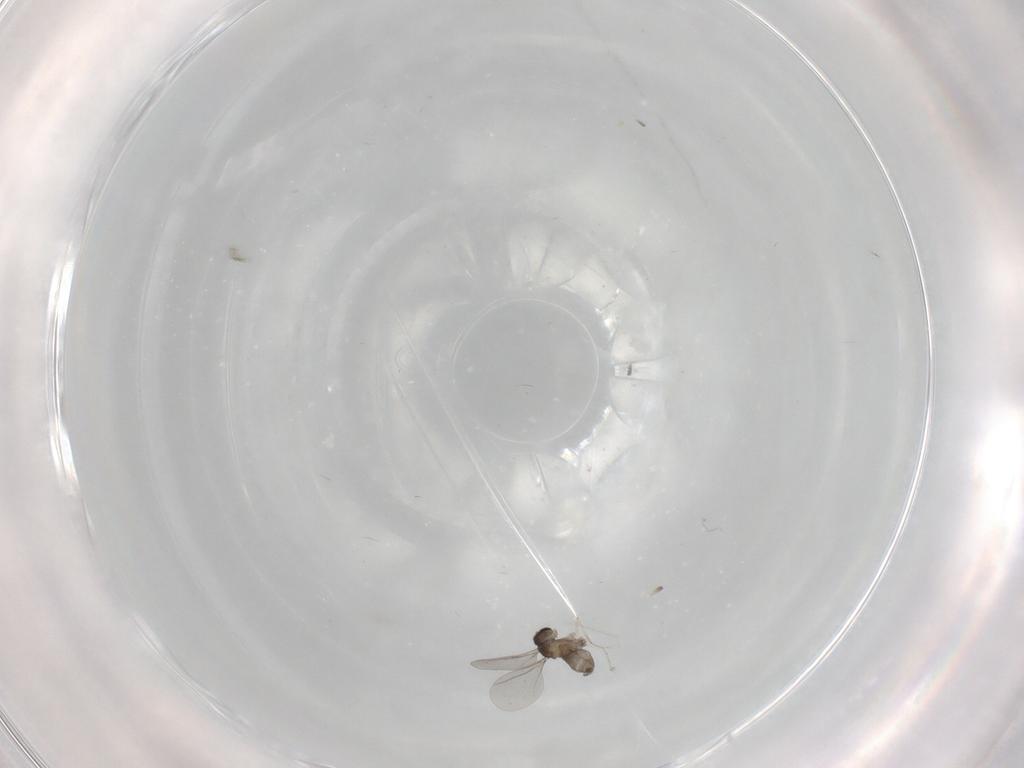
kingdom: Animalia
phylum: Arthropoda
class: Insecta
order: Diptera
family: Cecidomyiidae
